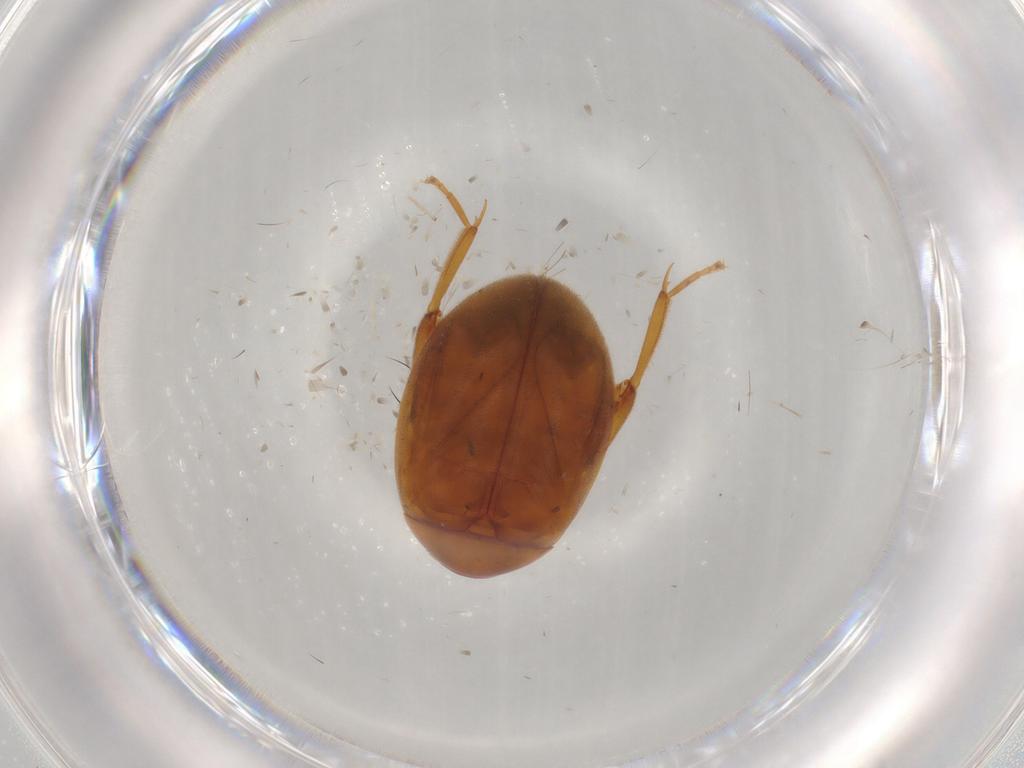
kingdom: Animalia
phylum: Arthropoda
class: Insecta
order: Coleoptera
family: Scirtidae
